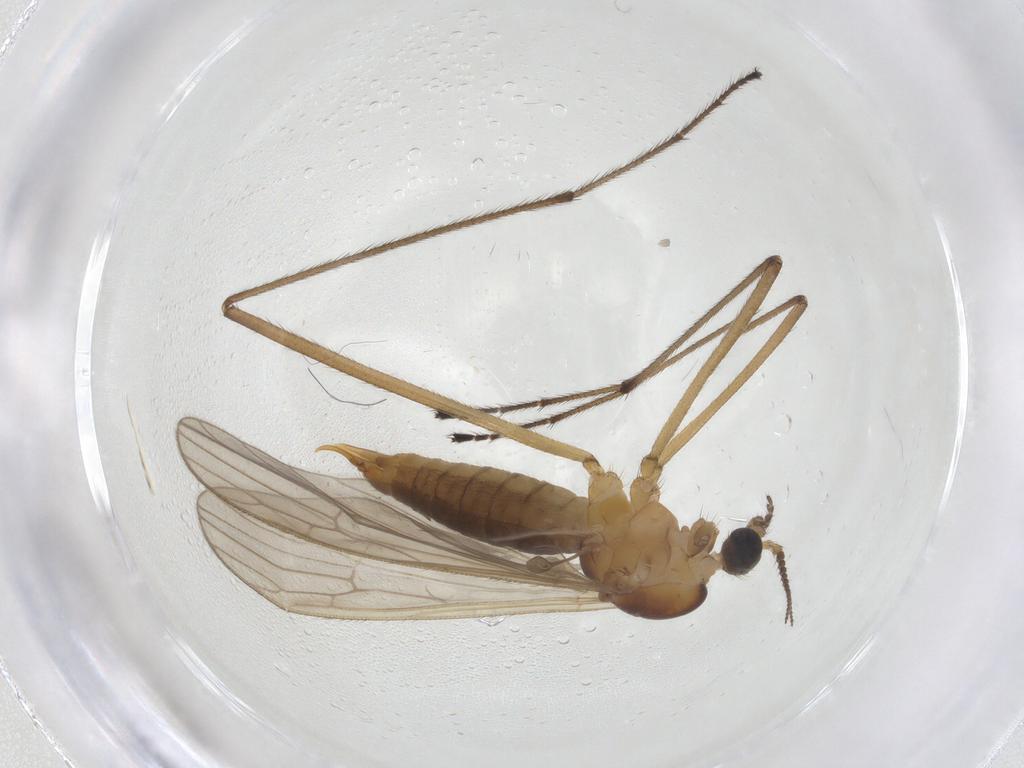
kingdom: Animalia
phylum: Arthropoda
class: Insecta
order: Diptera
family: Limoniidae
